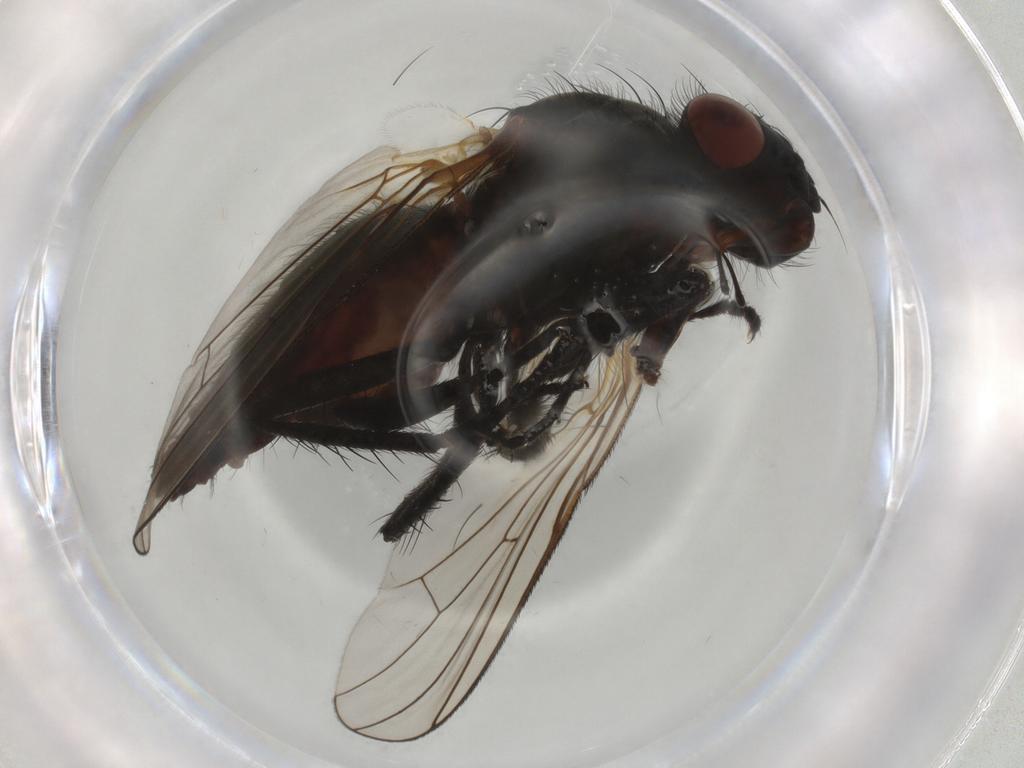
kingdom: Animalia
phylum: Arthropoda
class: Insecta
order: Diptera
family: Anthomyiidae
